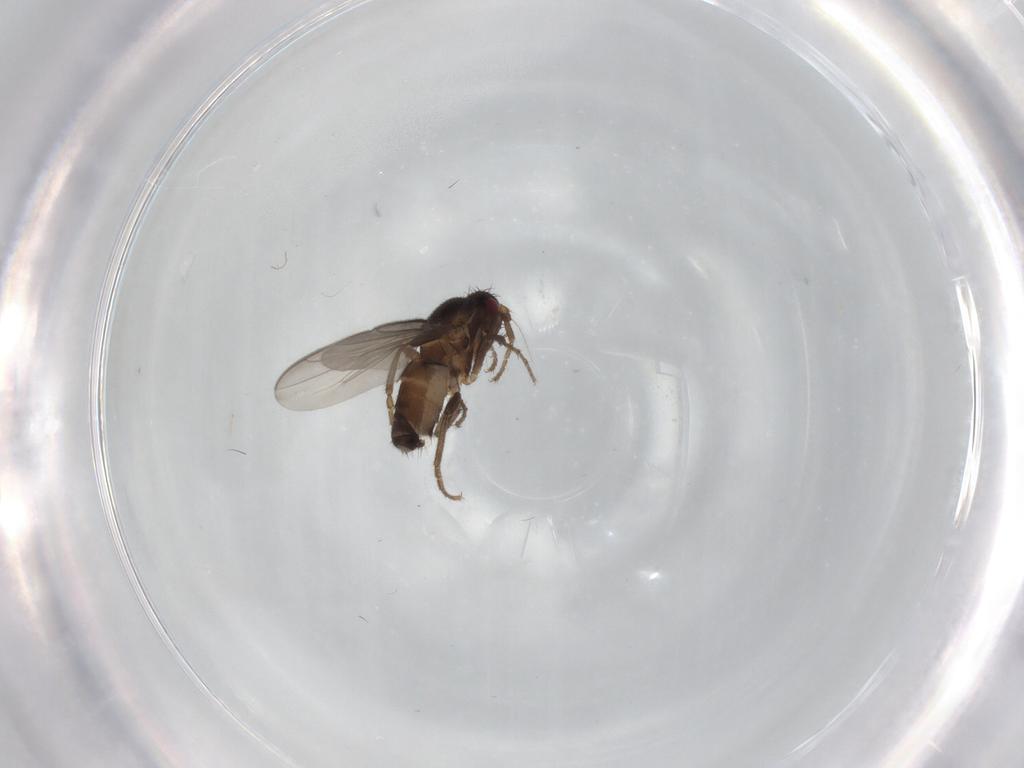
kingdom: Animalia
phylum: Arthropoda
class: Insecta
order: Diptera
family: Sphaeroceridae
